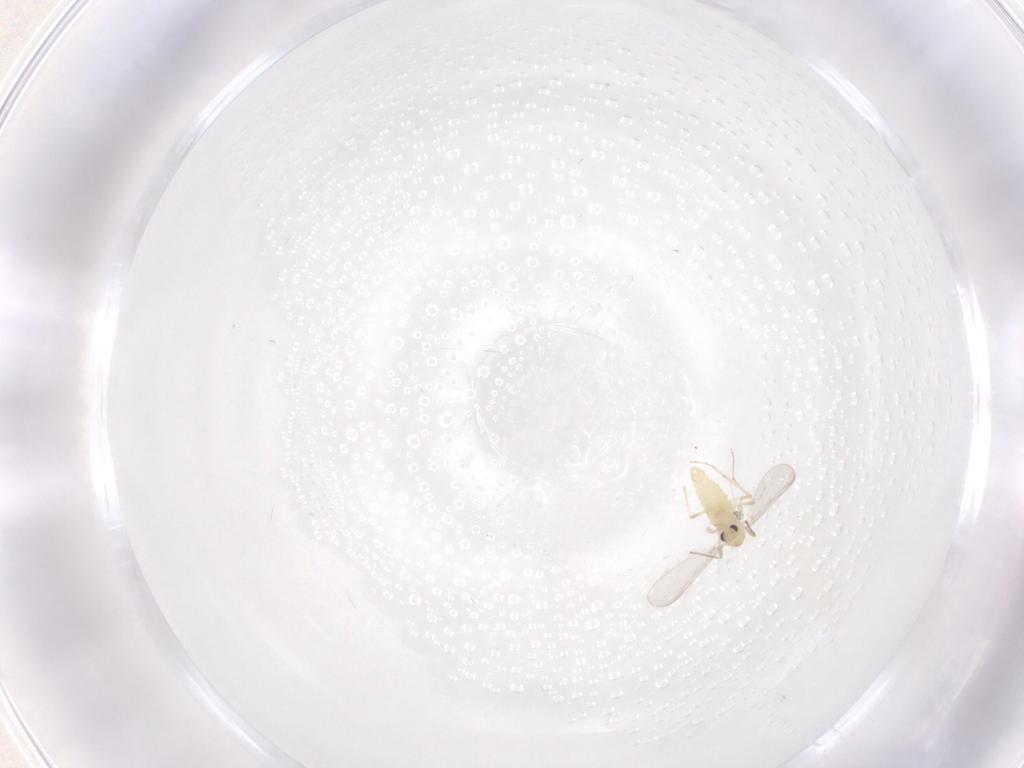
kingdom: Animalia
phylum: Arthropoda
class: Insecta
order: Diptera
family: Chironomidae
